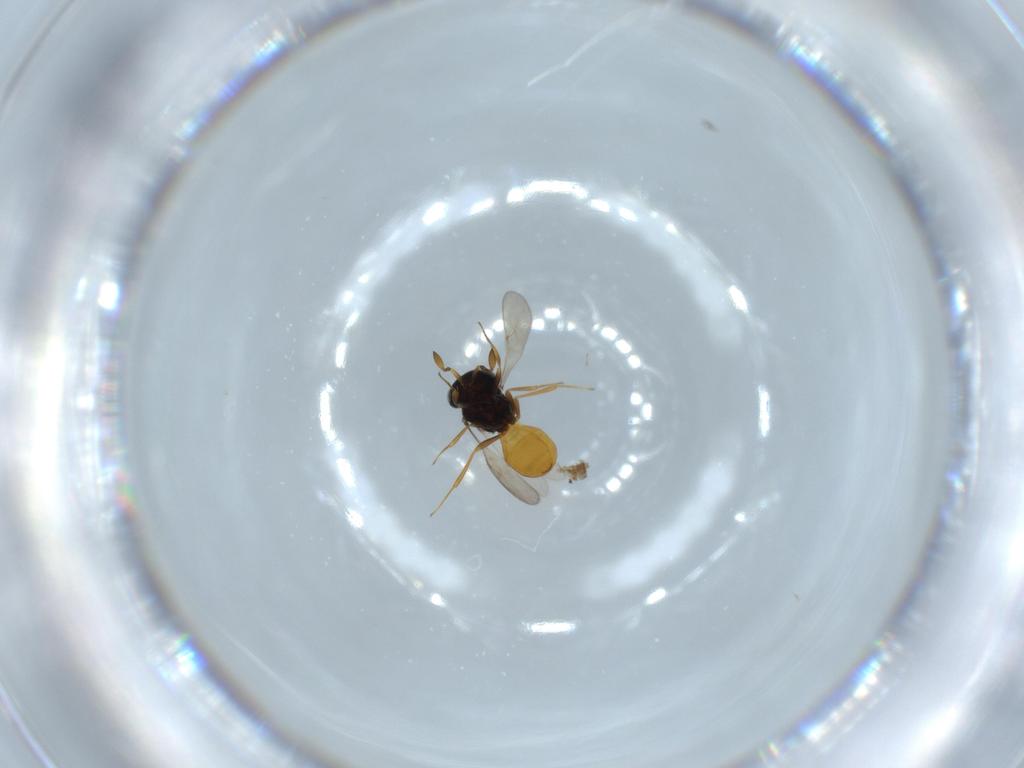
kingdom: Animalia
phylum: Arthropoda
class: Insecta
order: Hymenoptera
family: Scelionidae
